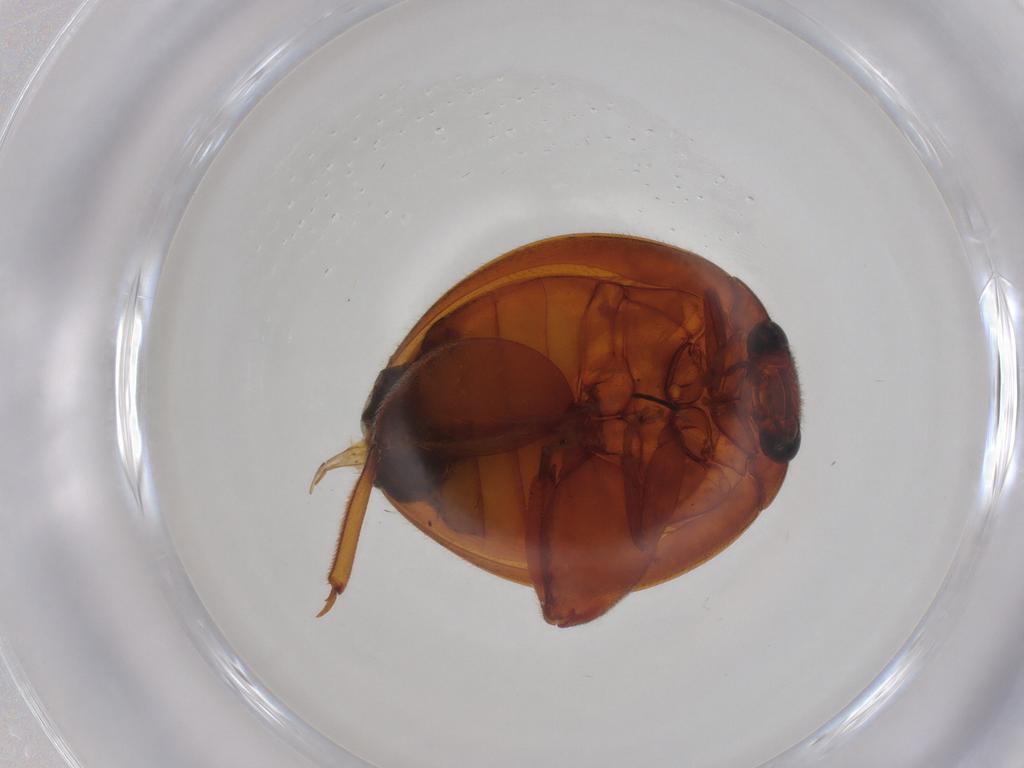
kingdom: Animalia
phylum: Arthropoda
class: Insecta
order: Coleoptera
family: Scirtidae
